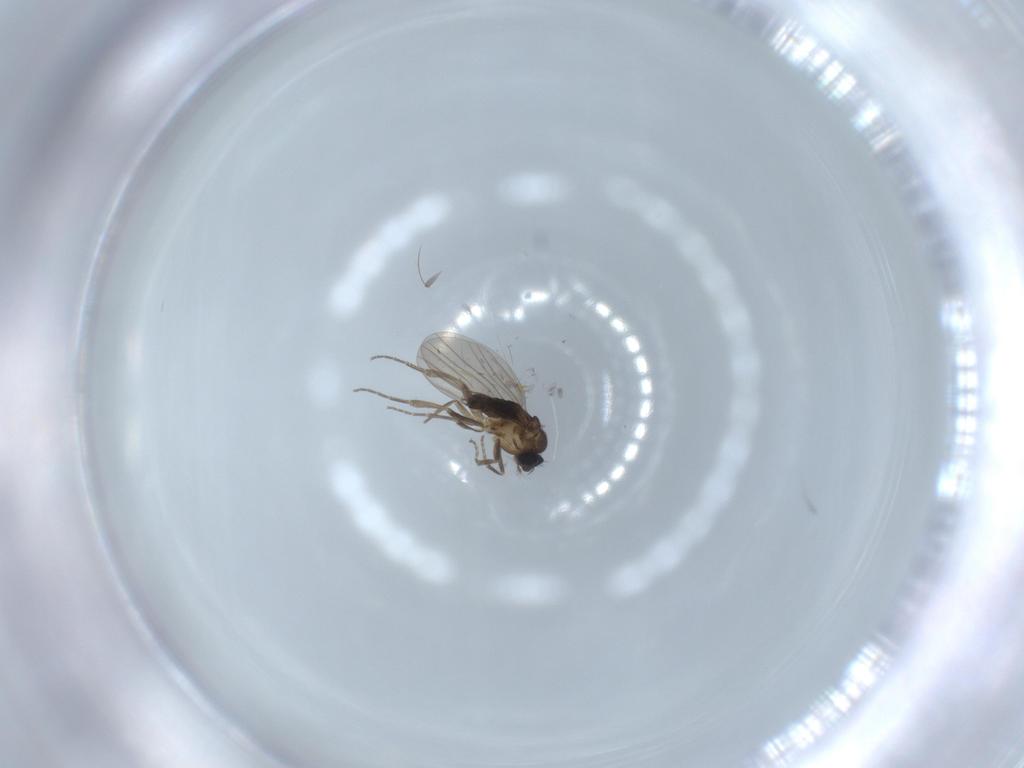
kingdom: Animalia
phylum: Arthropoda
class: Insecta
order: Diptera
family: Phoridae
